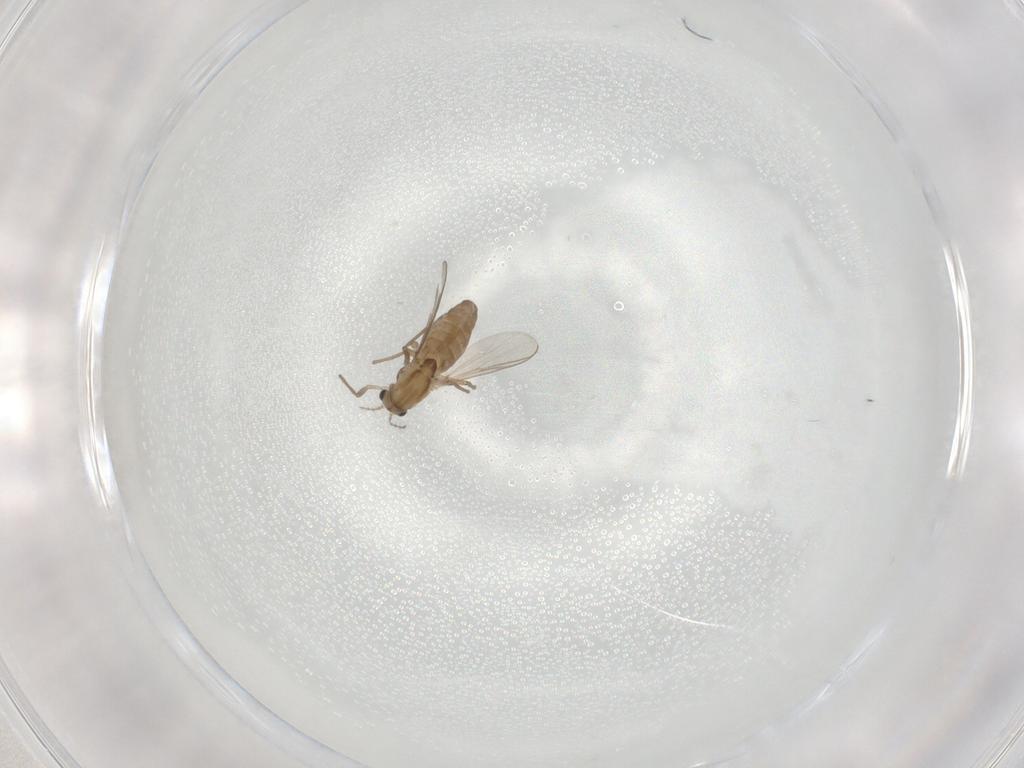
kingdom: Animalia
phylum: Arthropoda
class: Insecta
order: Diptera
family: Chironomidae
